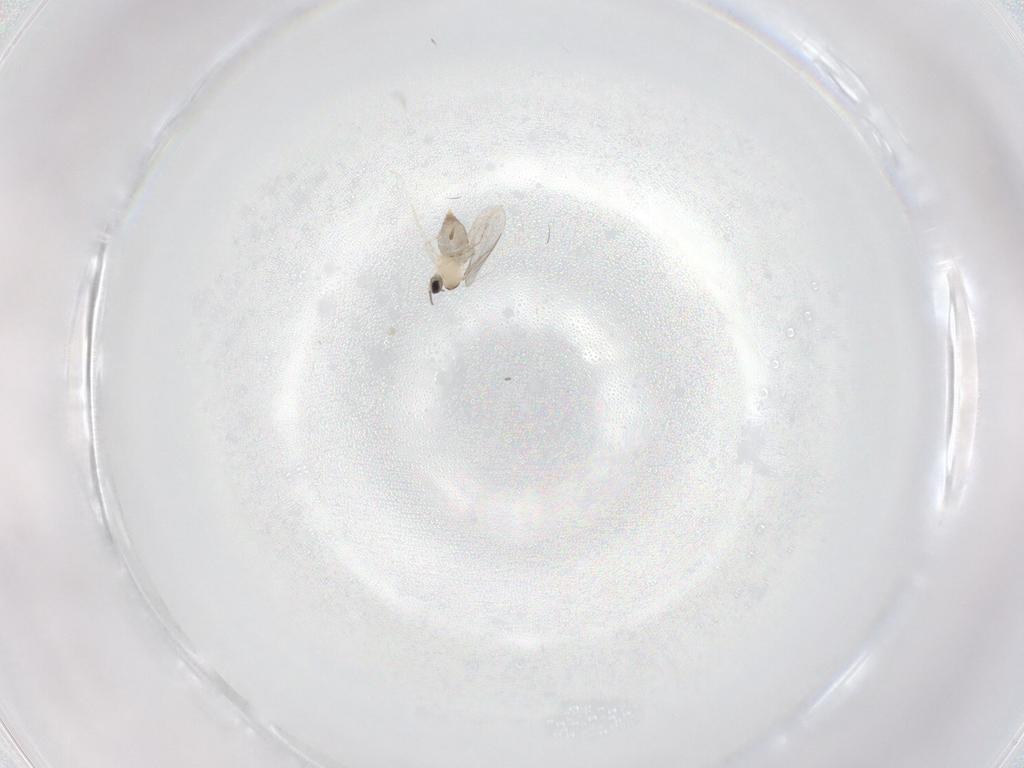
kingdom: Animalia
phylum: Arthropoda
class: Insecta
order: Diptera
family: Cecidomyiidae
